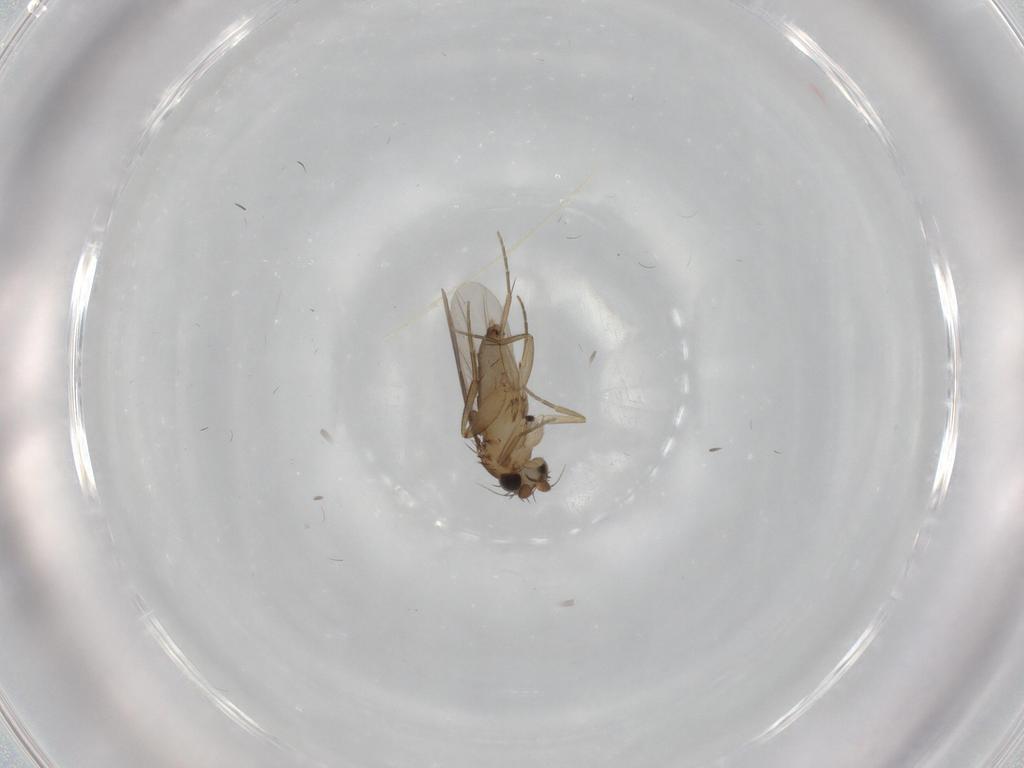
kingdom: Animalia
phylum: Arthropoda
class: Insecta
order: Diptera
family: Phoridae
